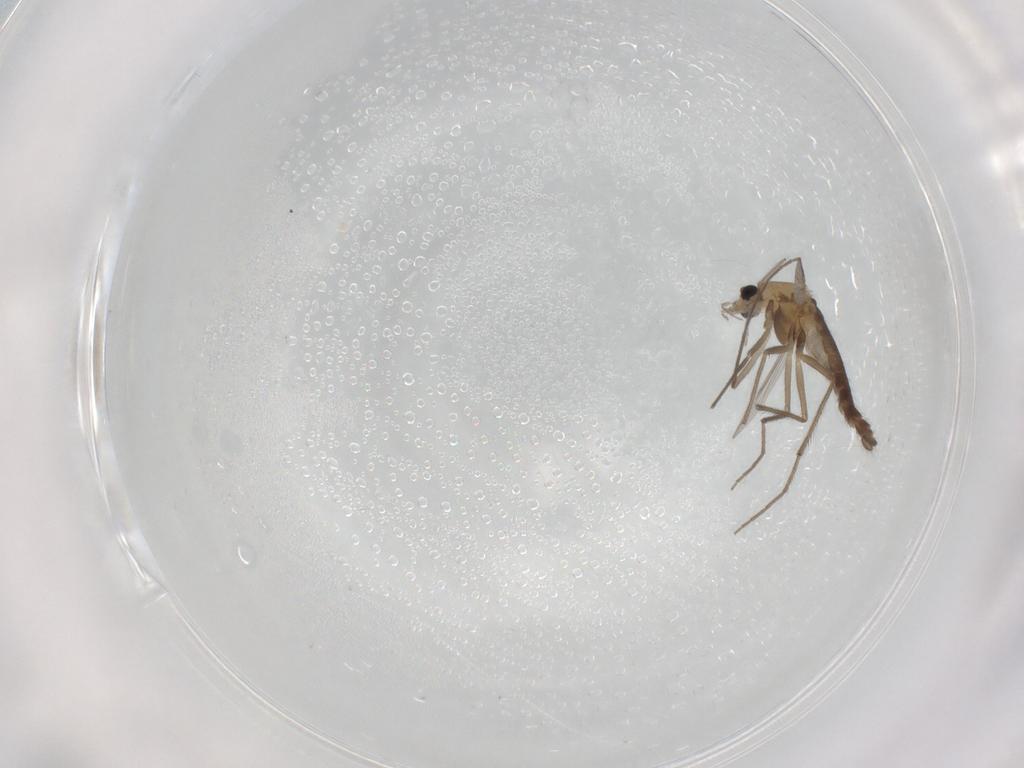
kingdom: Animalia
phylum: Arthropoda
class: Insecta
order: Diptera
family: Chironomidae
